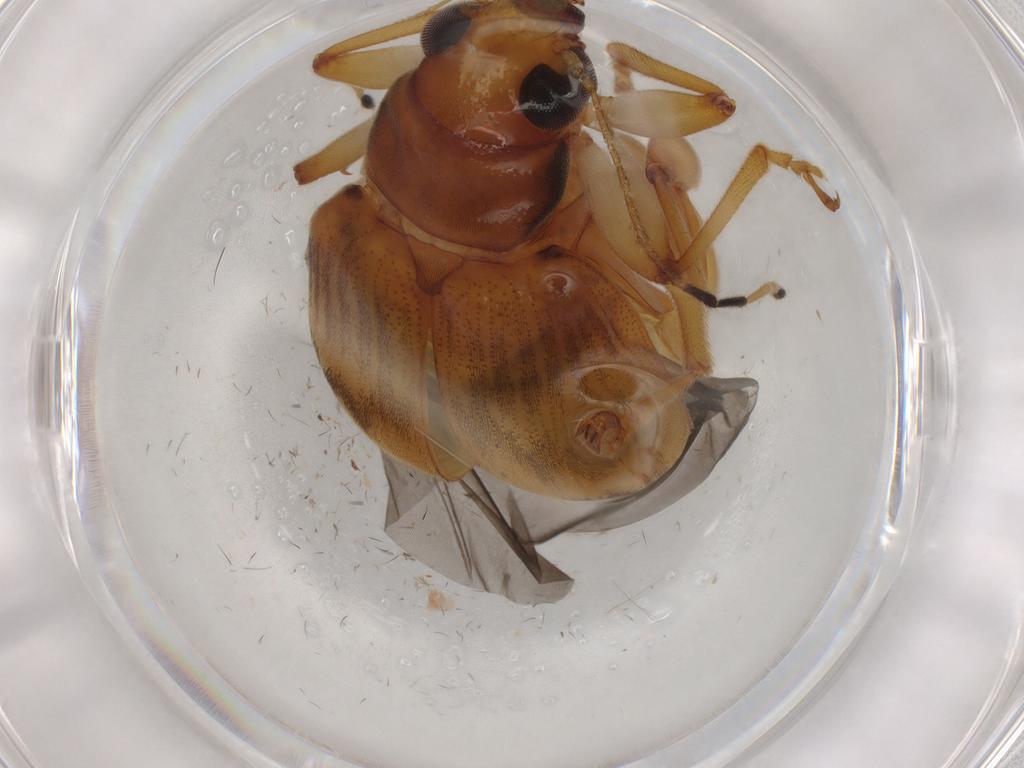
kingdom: Animalia
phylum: Arthropoda
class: Insecta
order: Coleoptera
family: Chrysomelidae
